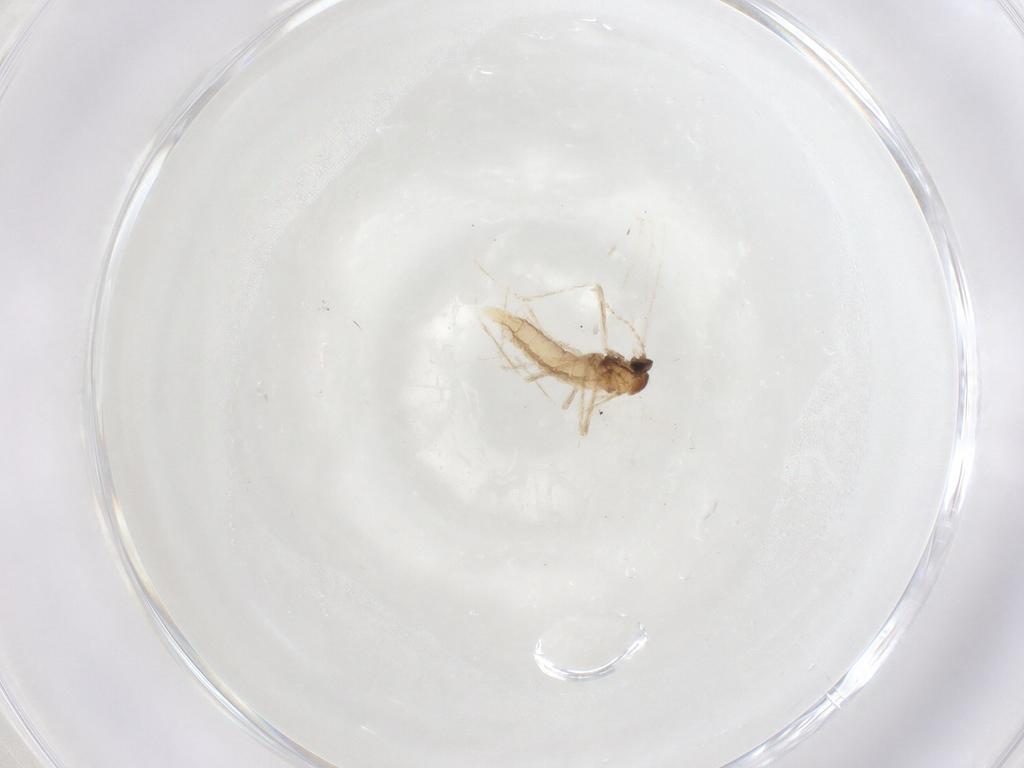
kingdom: Animalia
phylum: Arthropoda
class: Insecta
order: Diptera
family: Cecidomyiidae
